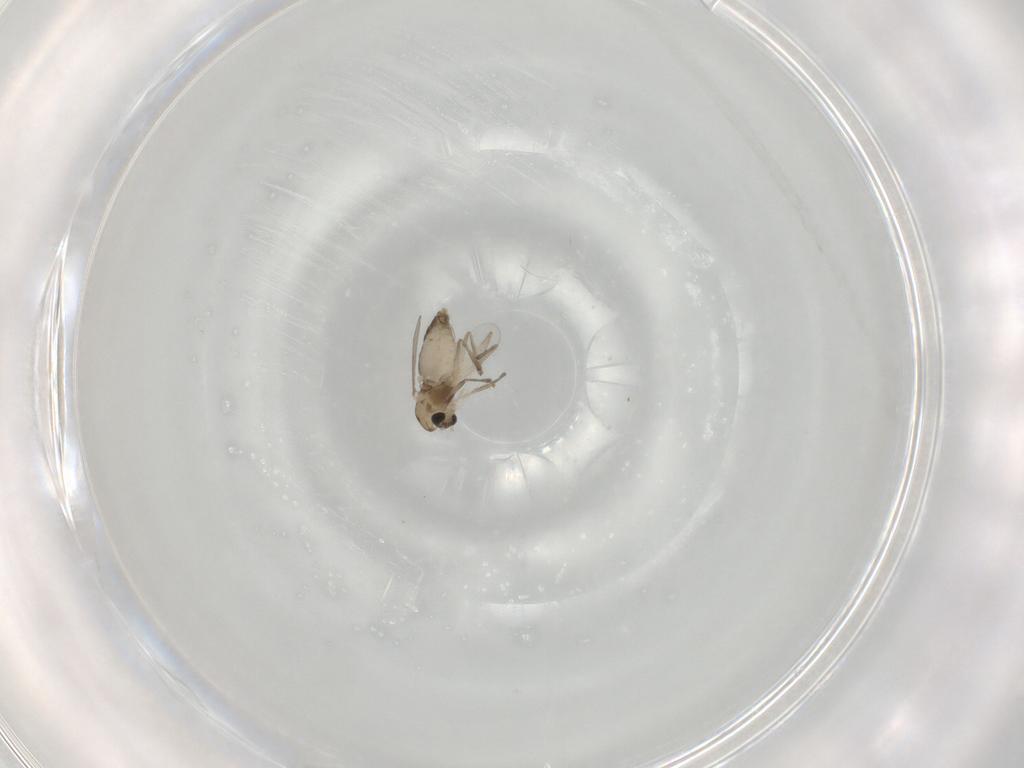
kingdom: Animalia
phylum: Arthropoda
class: Insecta
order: Diptera
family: Chironomidae
